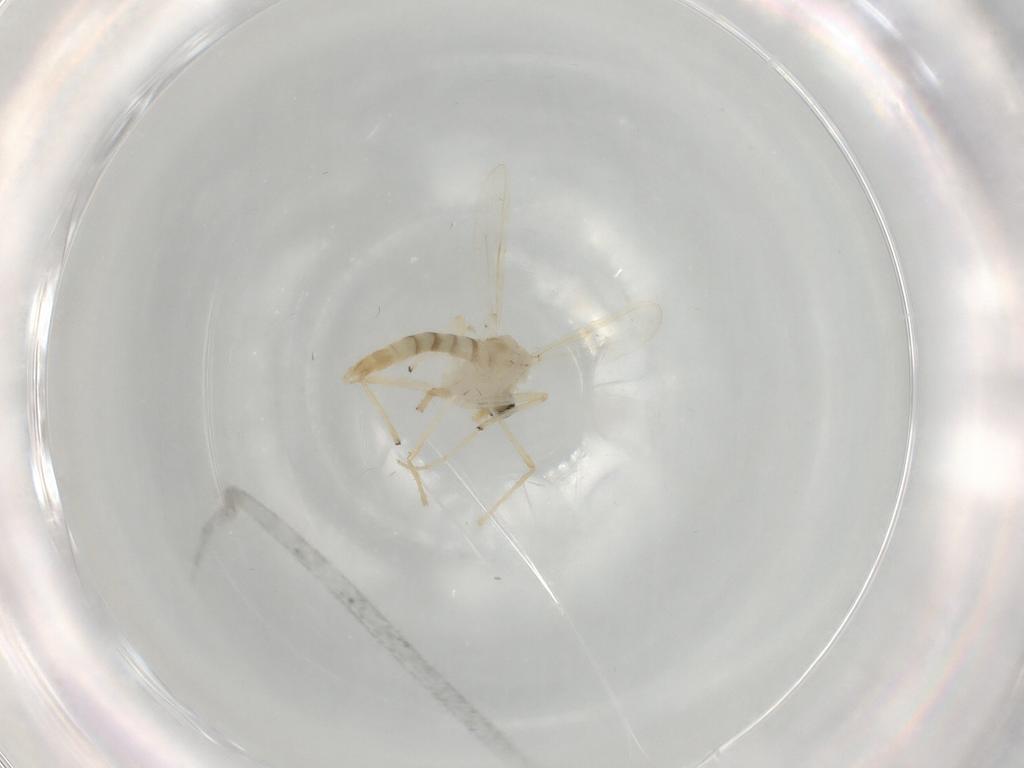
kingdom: Animalia
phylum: Arthropoda
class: Insecta
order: Diptera
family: Chironomidae
